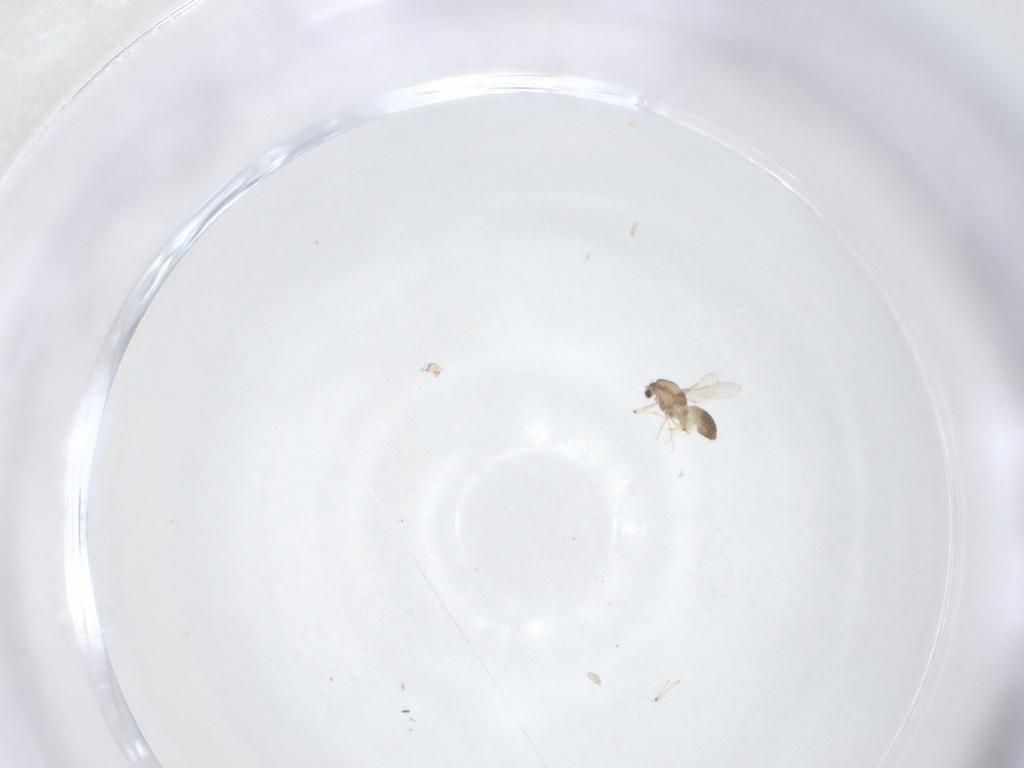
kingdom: Animalia
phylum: Arthropoda
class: Insecta
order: Diptera
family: Chironomidae
